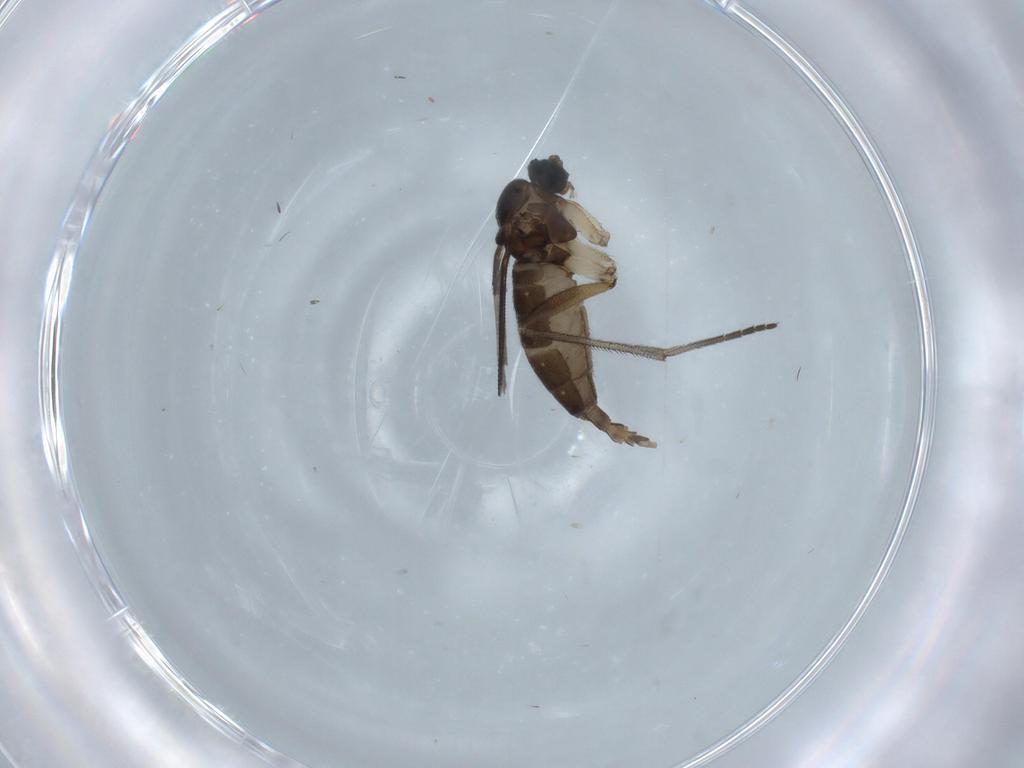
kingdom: Animalia
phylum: Arthropoda
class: Insecta
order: Diptera
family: Sciaridae
